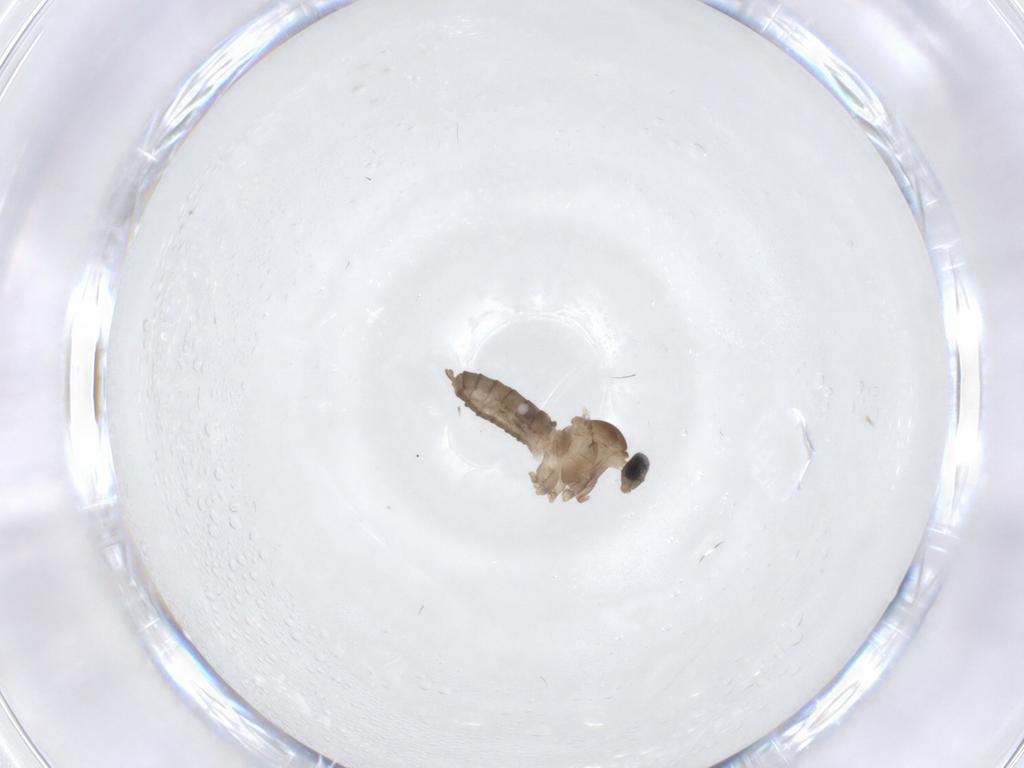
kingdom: Animalia
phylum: Arthropoda
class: Insecta
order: Diptera
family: Cecidomyiidae
